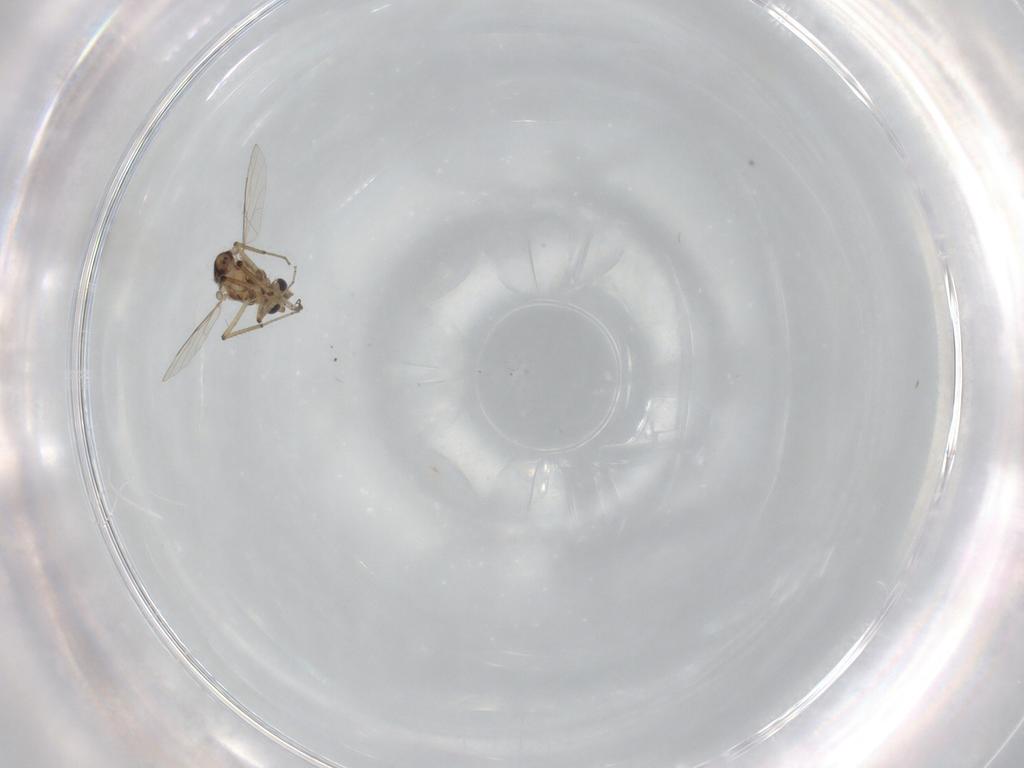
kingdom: Animalia
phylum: Arthropoda
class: Insecta
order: Diptera
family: Ceratopogonidae
